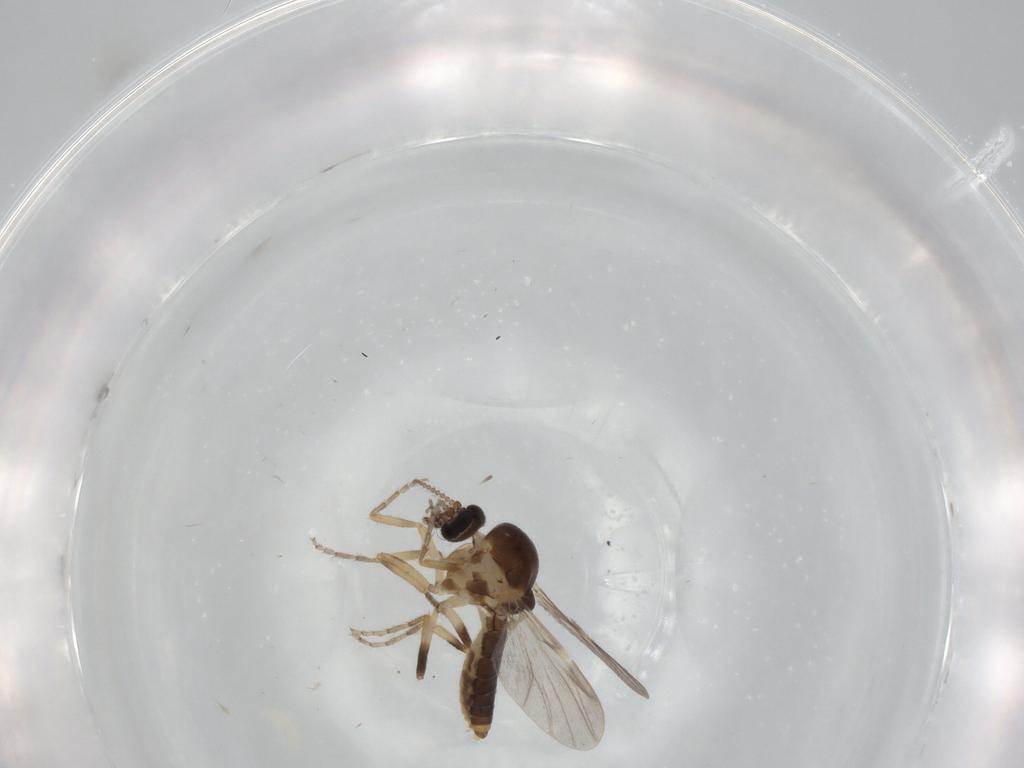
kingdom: Animalia
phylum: Arthropoda
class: Insecta
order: Diptera
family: Ceratopogonidae
